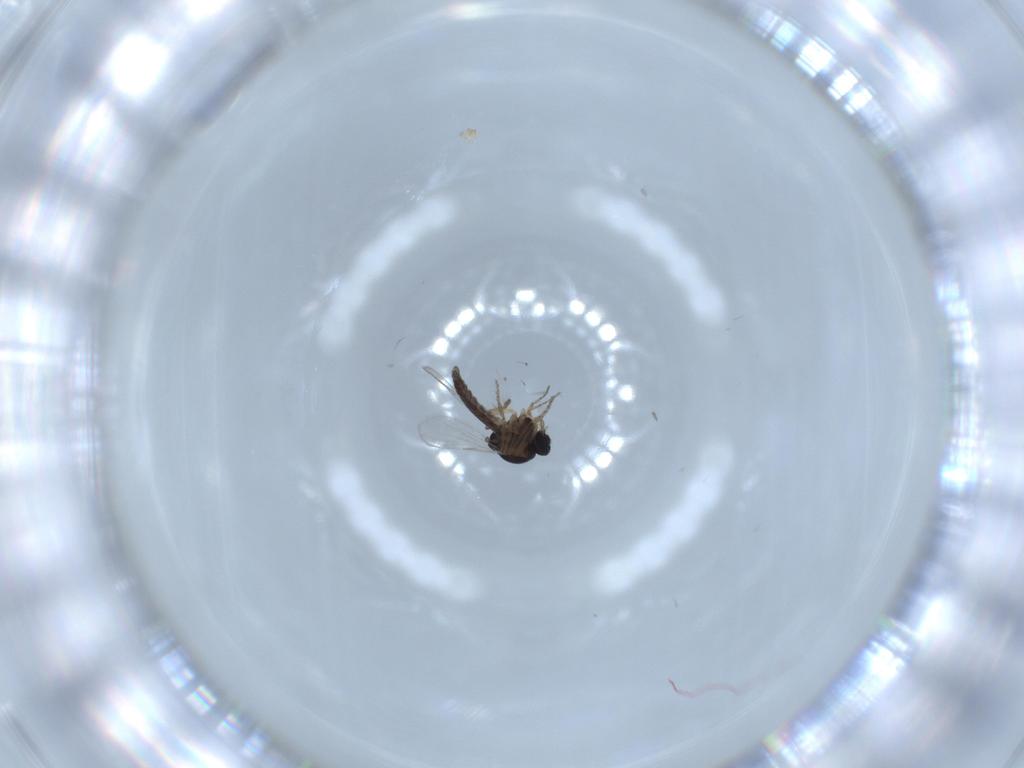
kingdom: Animalia
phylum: Arthropoda
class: Insecta
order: Diptera
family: Ceratopogonidae
